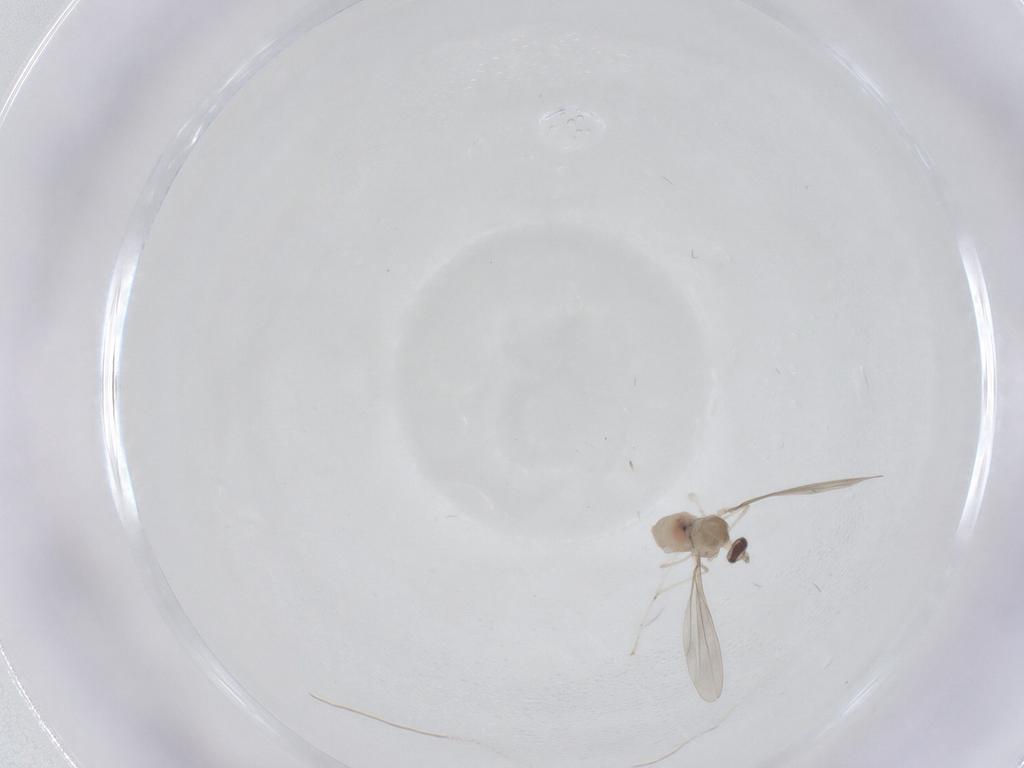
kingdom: Animalia
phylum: Arthropoda
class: Insecta
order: Diptera
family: Cecidomyiidae
